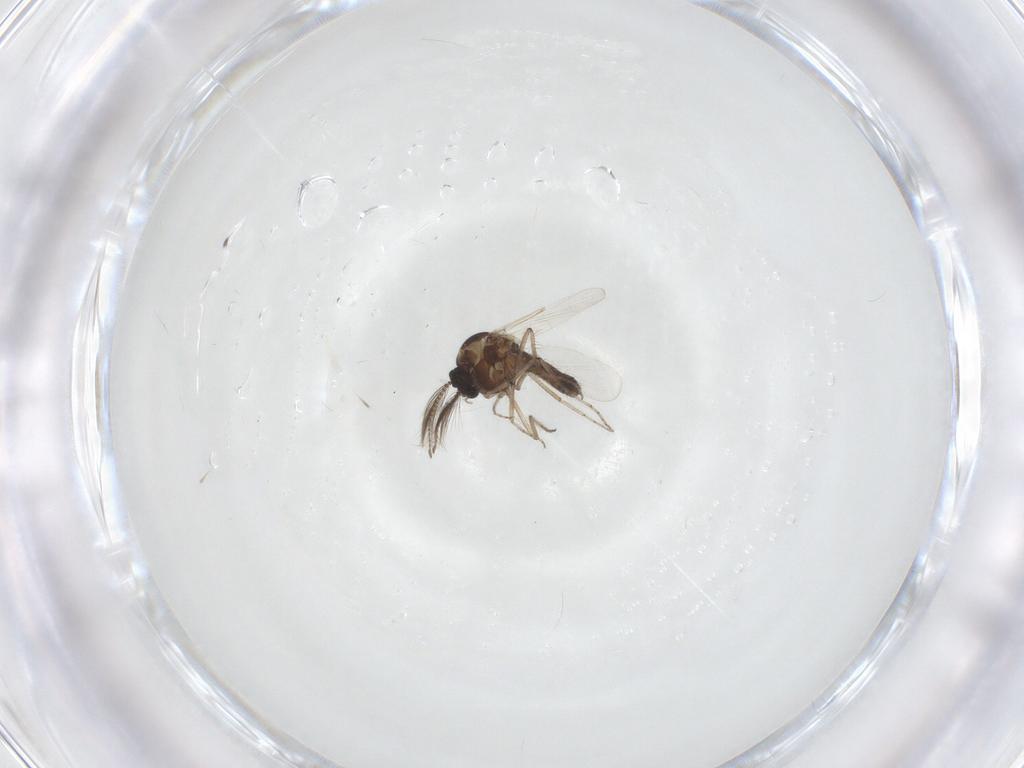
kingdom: Animalia
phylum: Arthropoda
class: Insecta
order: Diptera
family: Ceratopogonidae
